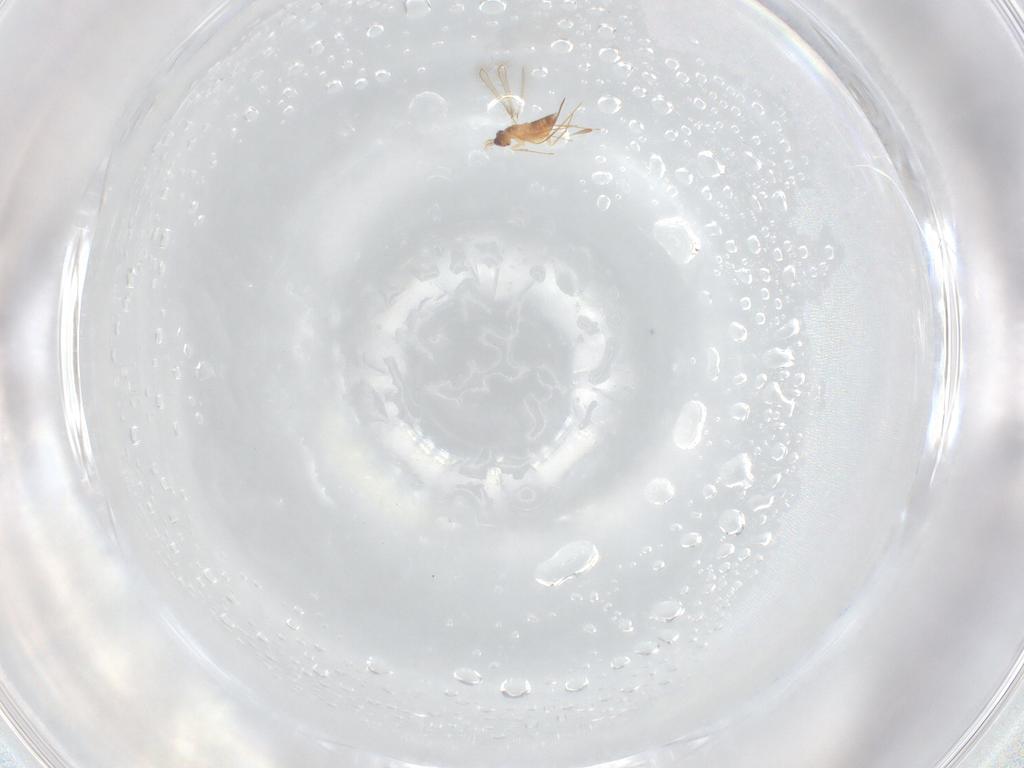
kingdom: Animalia
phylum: Arthropoda
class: Insecta
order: Hymenoptera
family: Mymaridae
